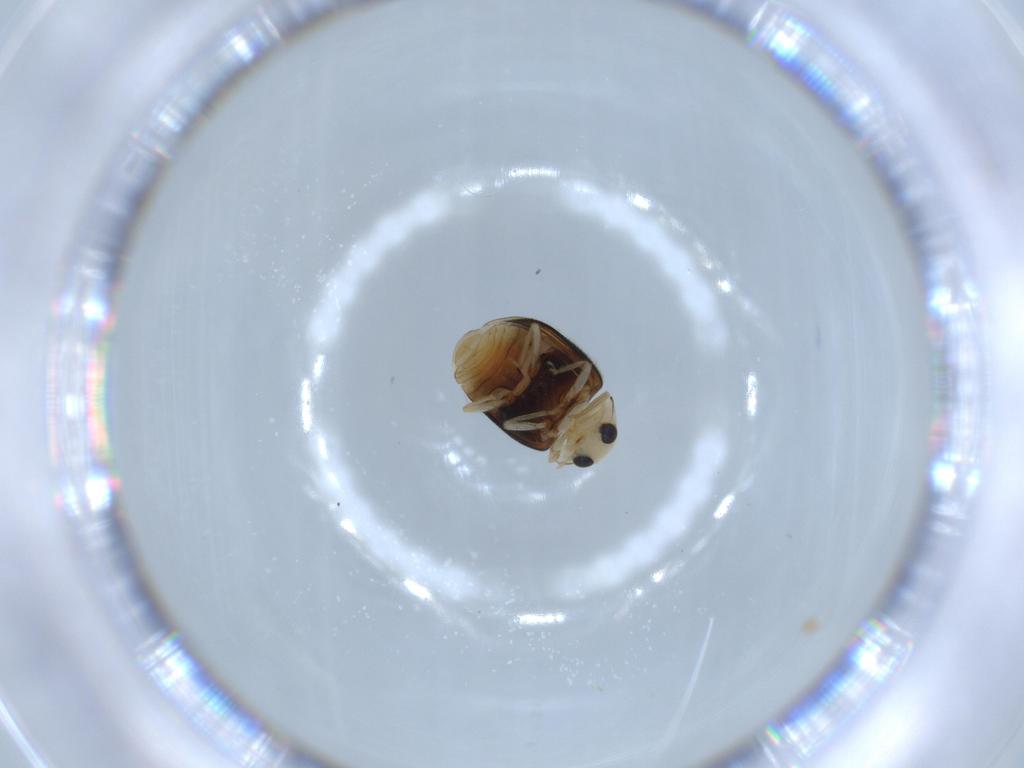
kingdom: Animalia
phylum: Arthropoda
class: Insecta
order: Coleoptera
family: Coccinellidae
